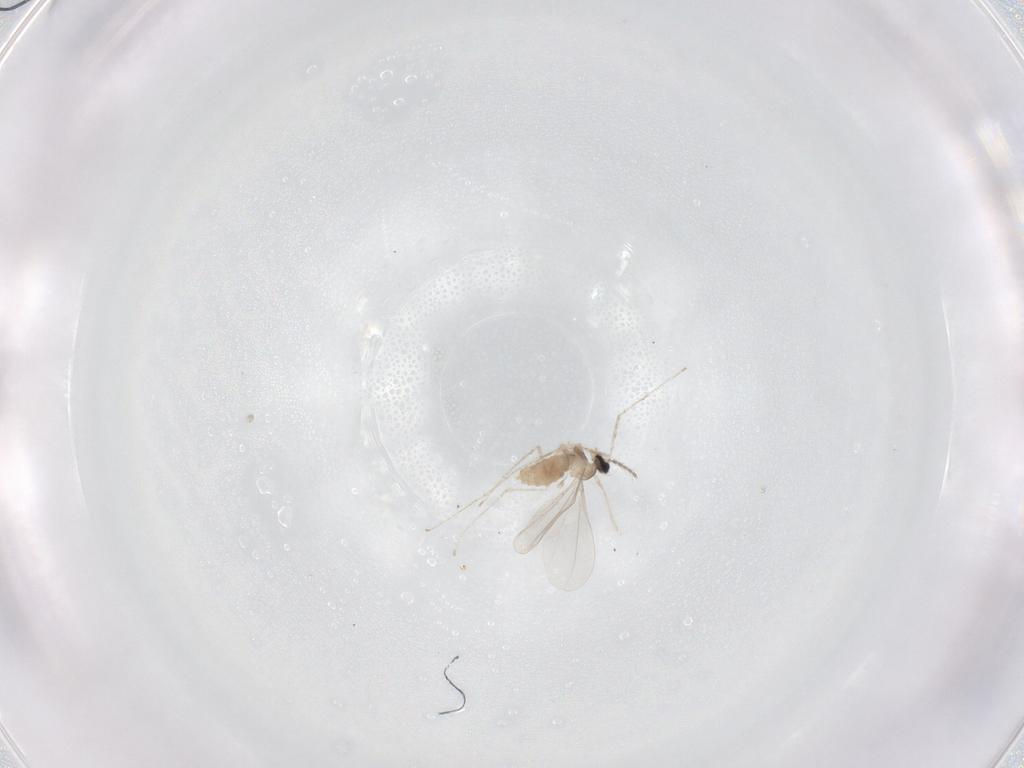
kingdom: Animalia
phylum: Arthropoda
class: Insecta
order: Diptera
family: Cecidomyiidae
